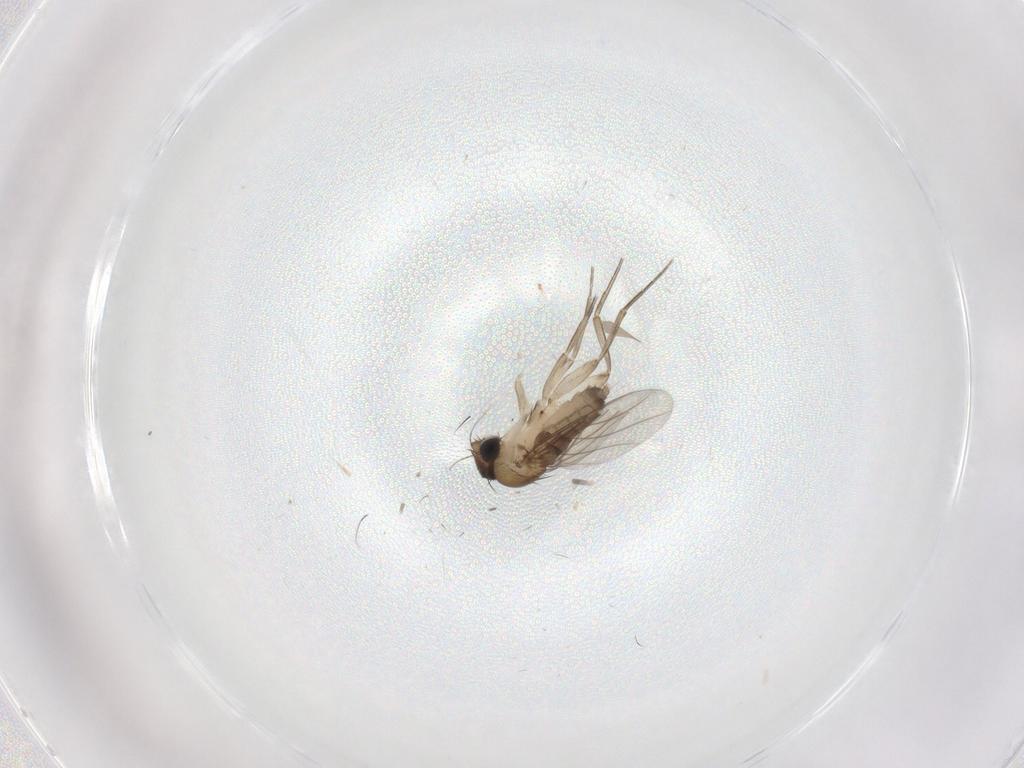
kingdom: Animalia
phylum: Arthropoda
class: Insecta
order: Diptera
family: Phoridae
